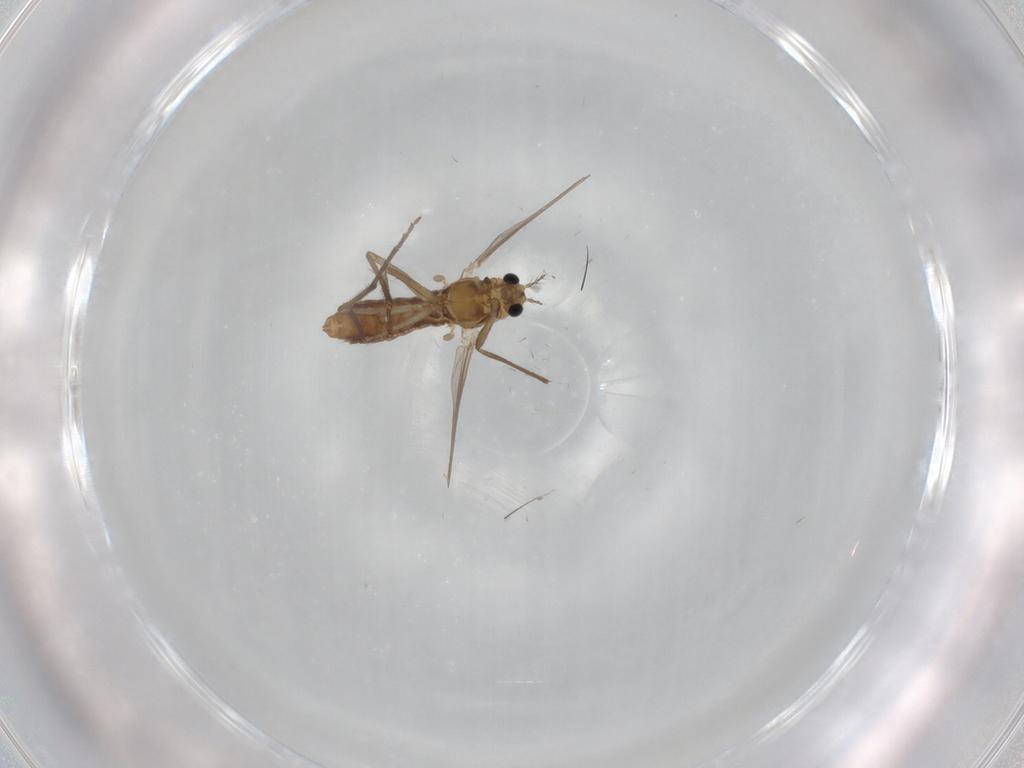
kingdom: Animalia
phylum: Arthropoda
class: Insecta
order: Diptera
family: Chironomidae
